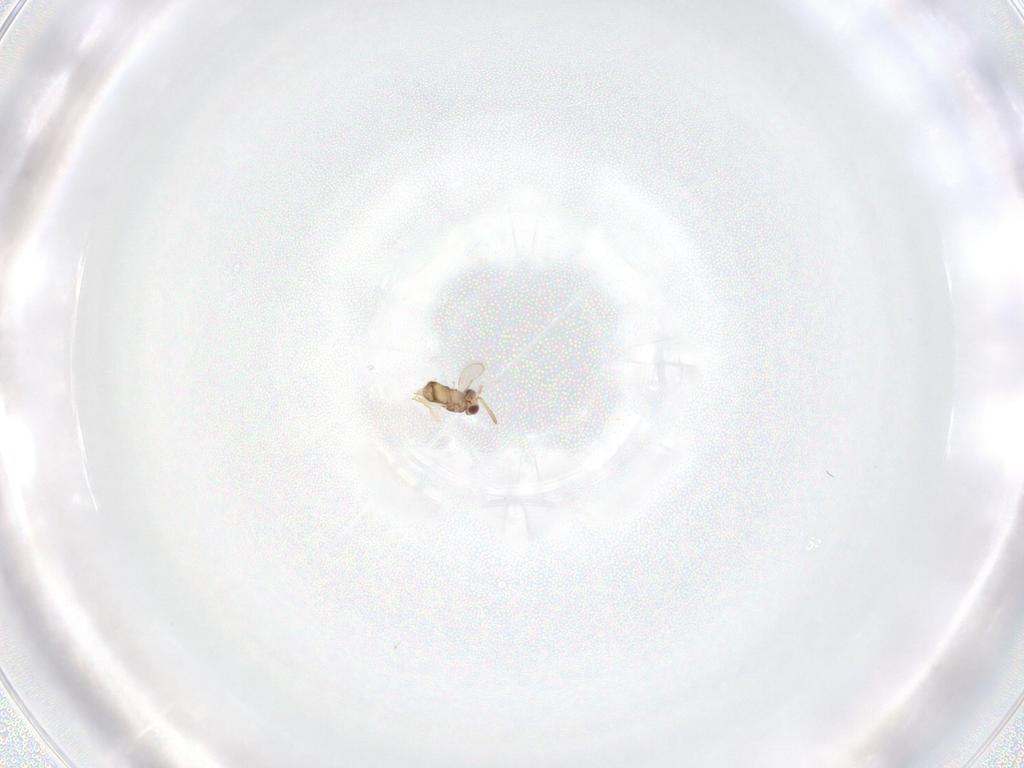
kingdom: Animalia
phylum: Arthropoda
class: Insecta
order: Hymenoptera
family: Aphelinidae
